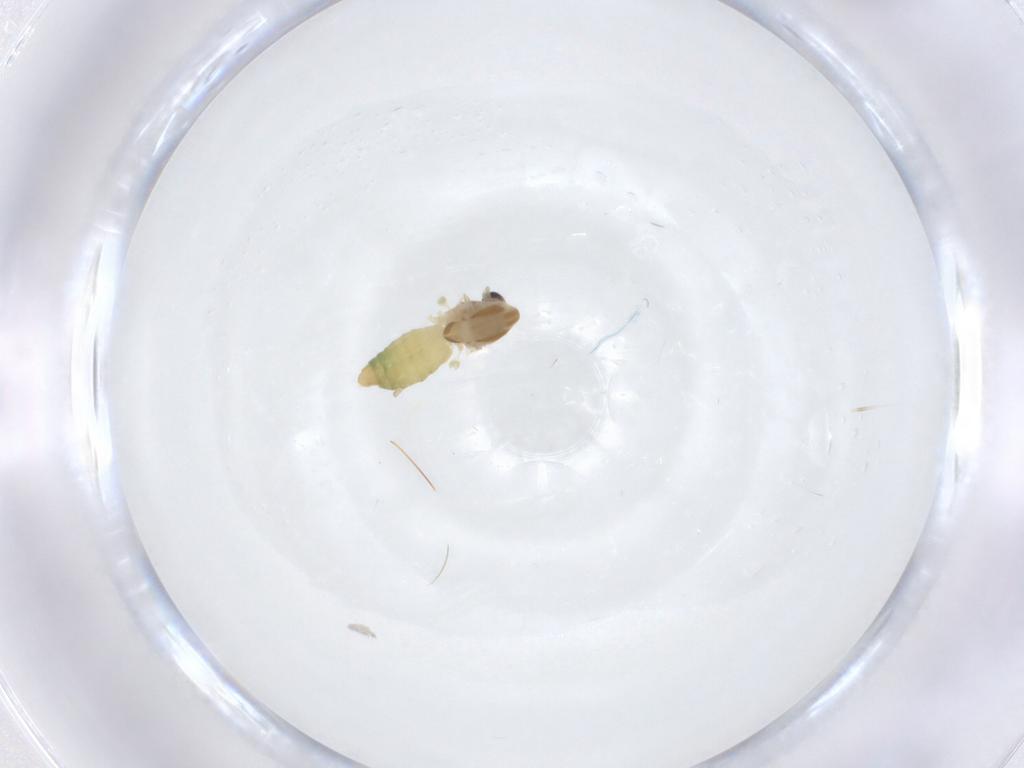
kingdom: Animalia
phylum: Arthropoda
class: Insecta
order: Diptera
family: Chironomidae
